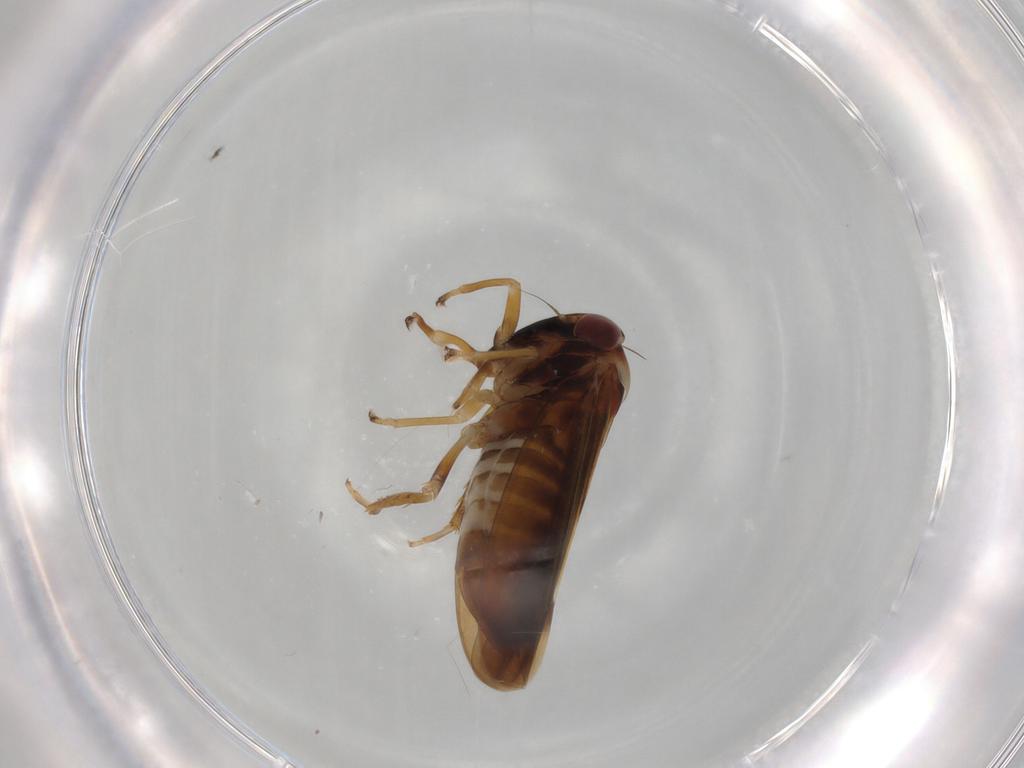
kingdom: Animalia
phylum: Arthropoda
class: Insecta
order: Hemiptera
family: Cicadellidae
